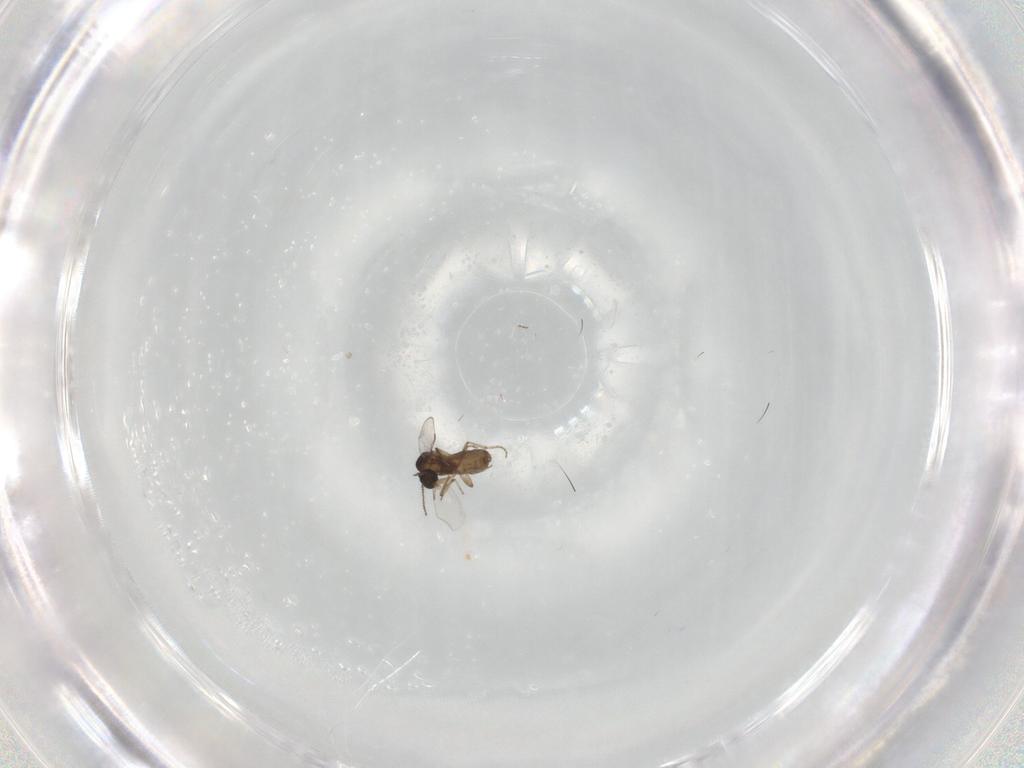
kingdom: Animalia
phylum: Arthropoda
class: Insecta
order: Diptera
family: Ceratopogonidae
